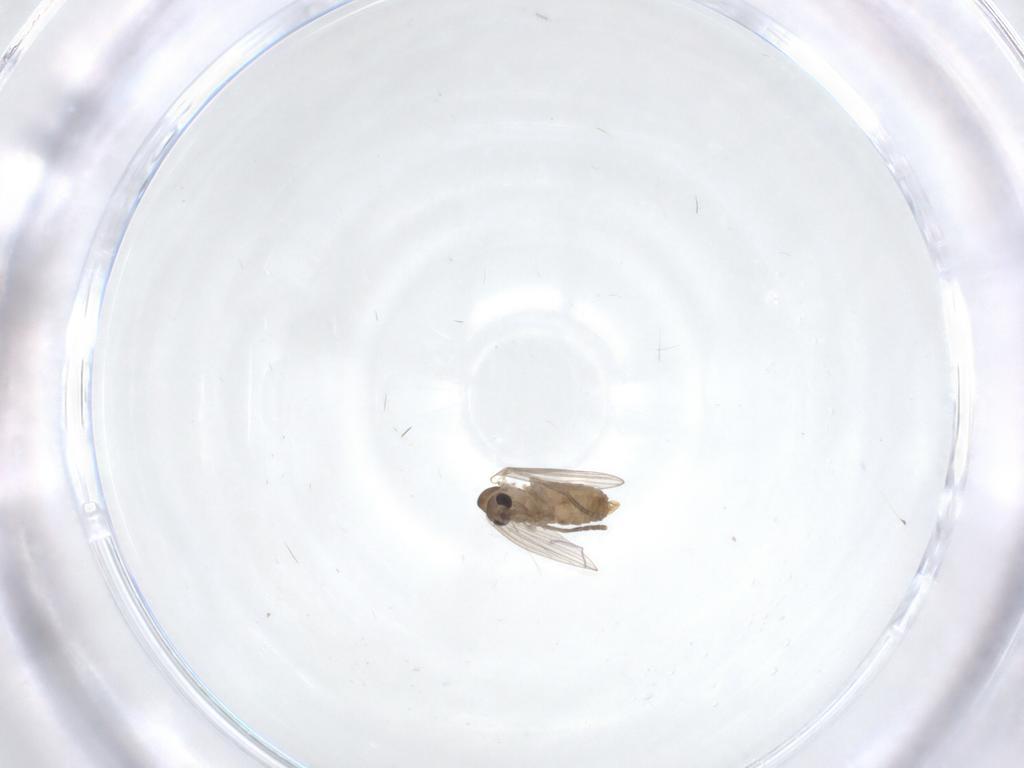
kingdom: Animalia
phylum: Arthropoda
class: Insecta
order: Diptera
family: Psychodidae
